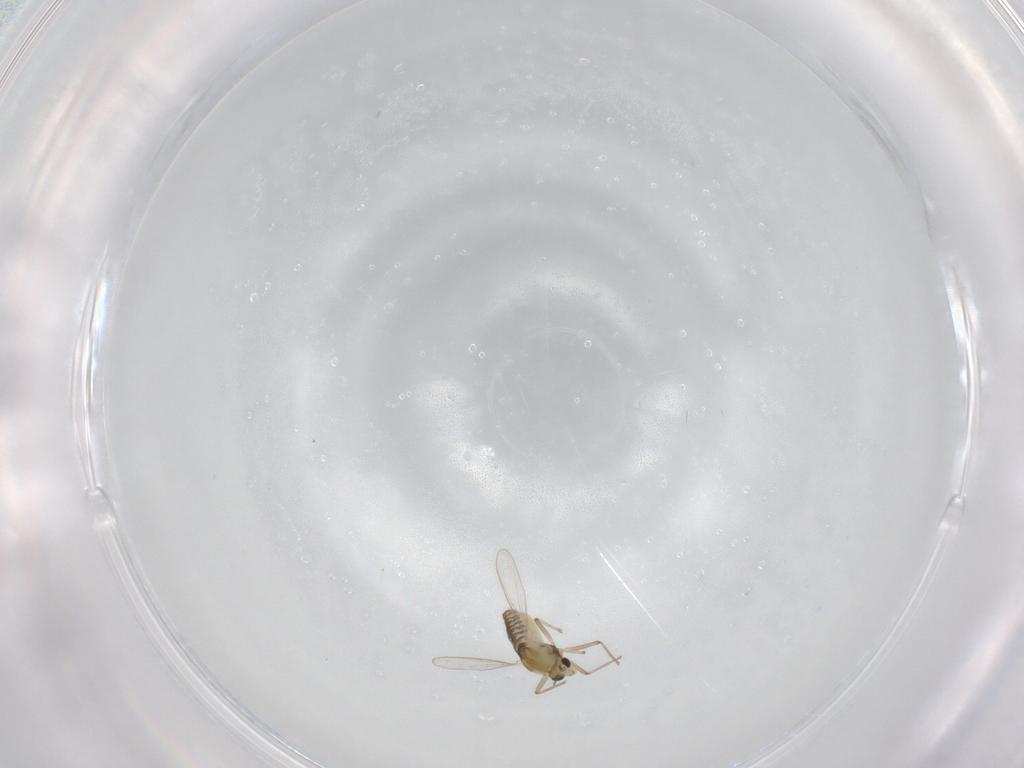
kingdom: Animalia
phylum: Arthropoda
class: Insecta
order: Diptera
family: Chironomidae
